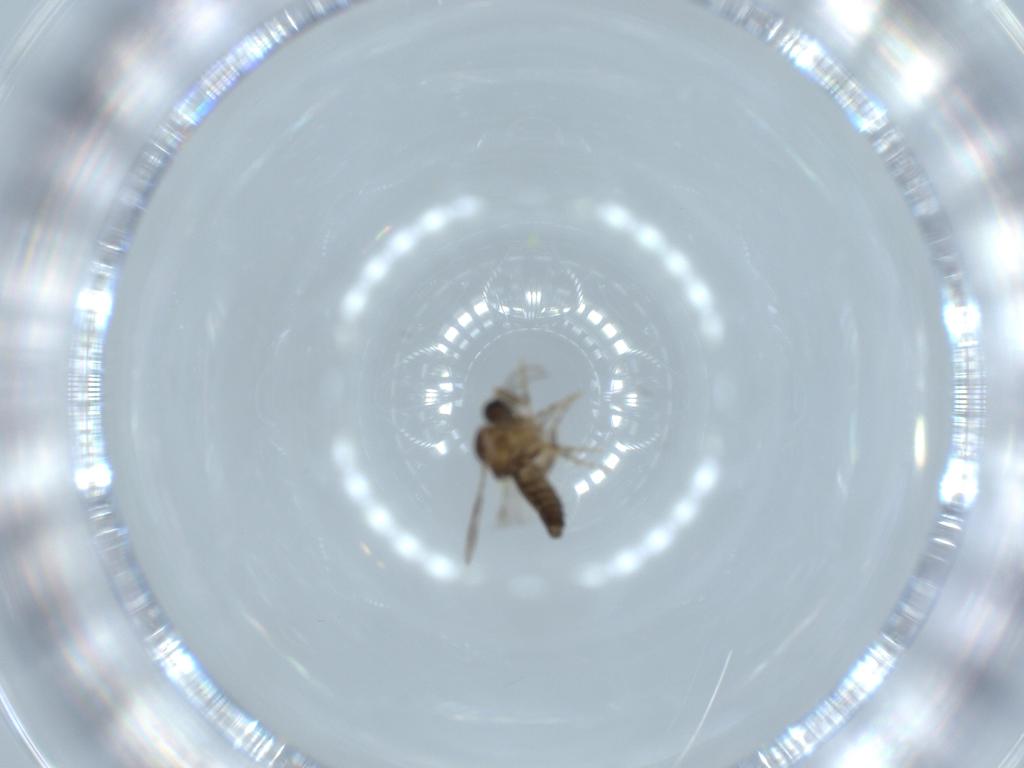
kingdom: Animalia
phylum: Arthropoda
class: Insecta
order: Diptera
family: Ceratopogonidae
